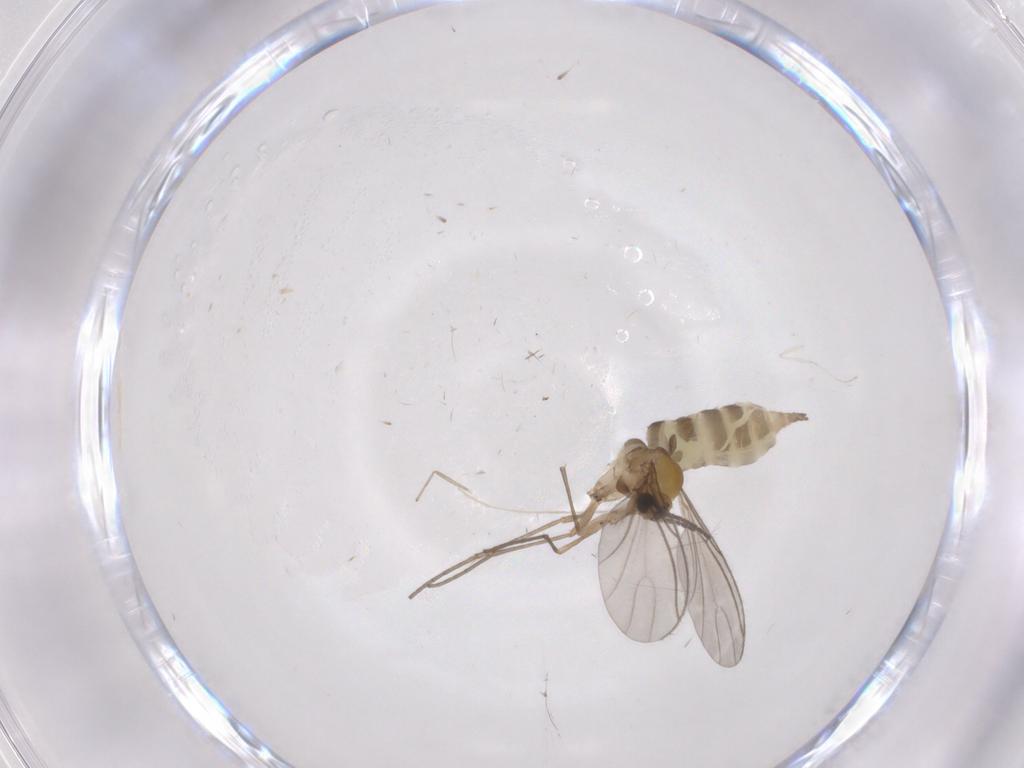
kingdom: Animalia
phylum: Arthropoda
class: Insecta
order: Diptera
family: Sciaridae
